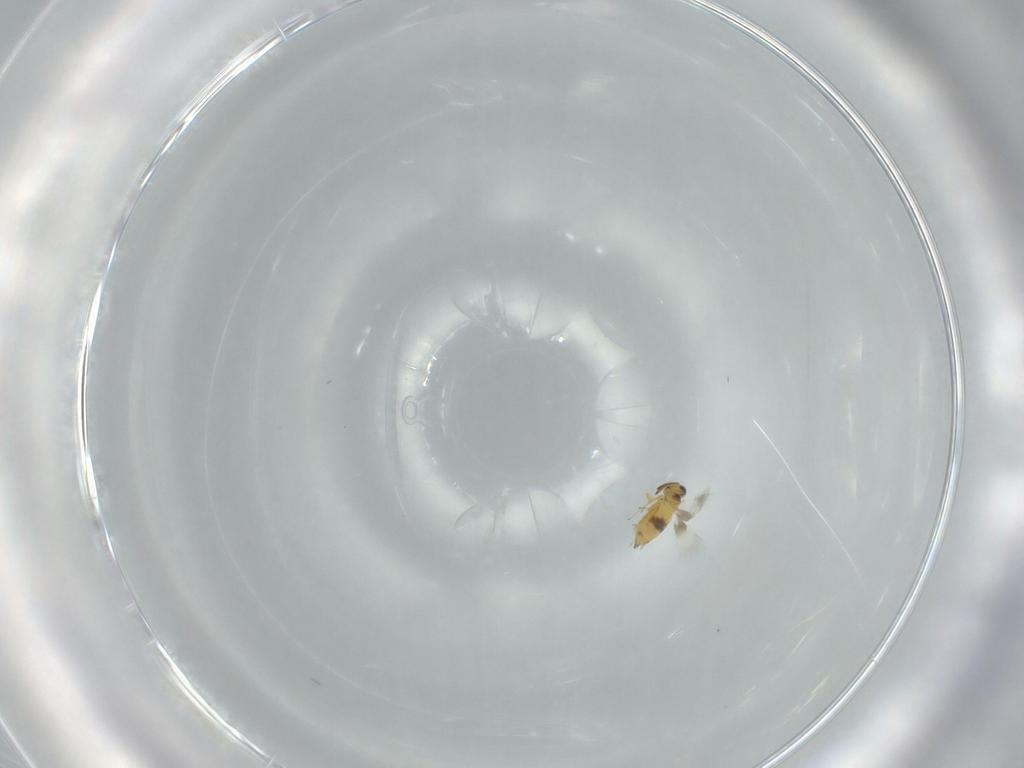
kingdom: Animalia
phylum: Arthropoda
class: Insecta
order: Hymenoptera
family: Signiphoridae
